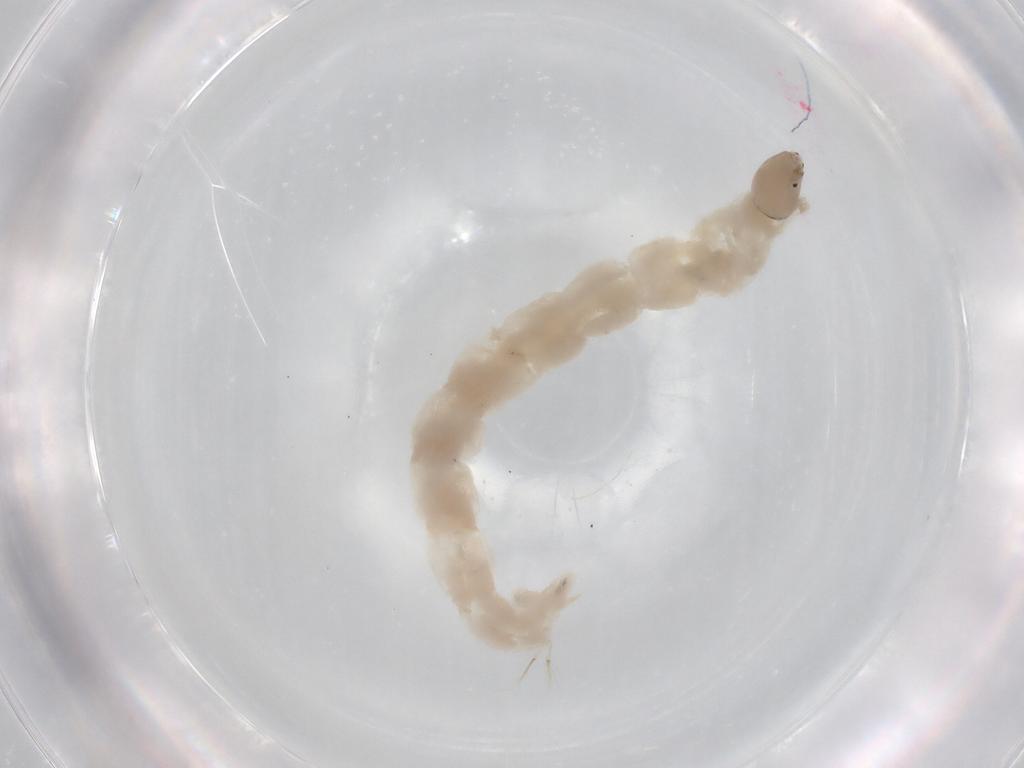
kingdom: Animalia
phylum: Arthropoda
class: Insecta
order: Diptera
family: Chironomidae
